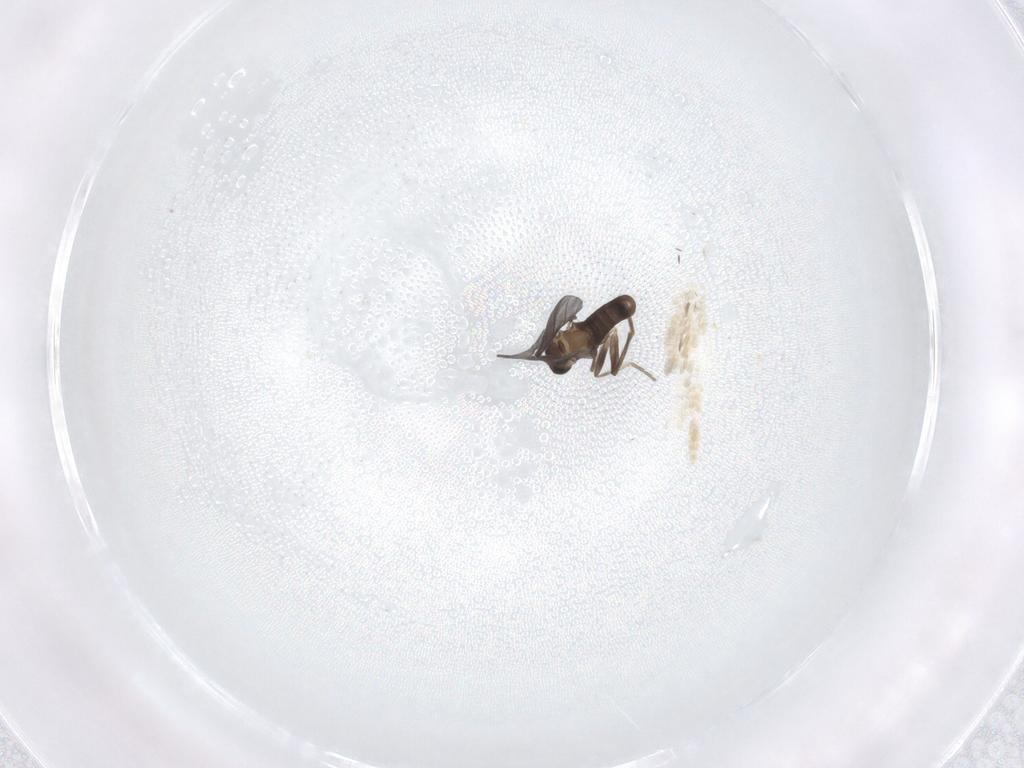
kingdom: Animalia
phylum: Arthropoda
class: Insecta
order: Diptera
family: Phoridae
